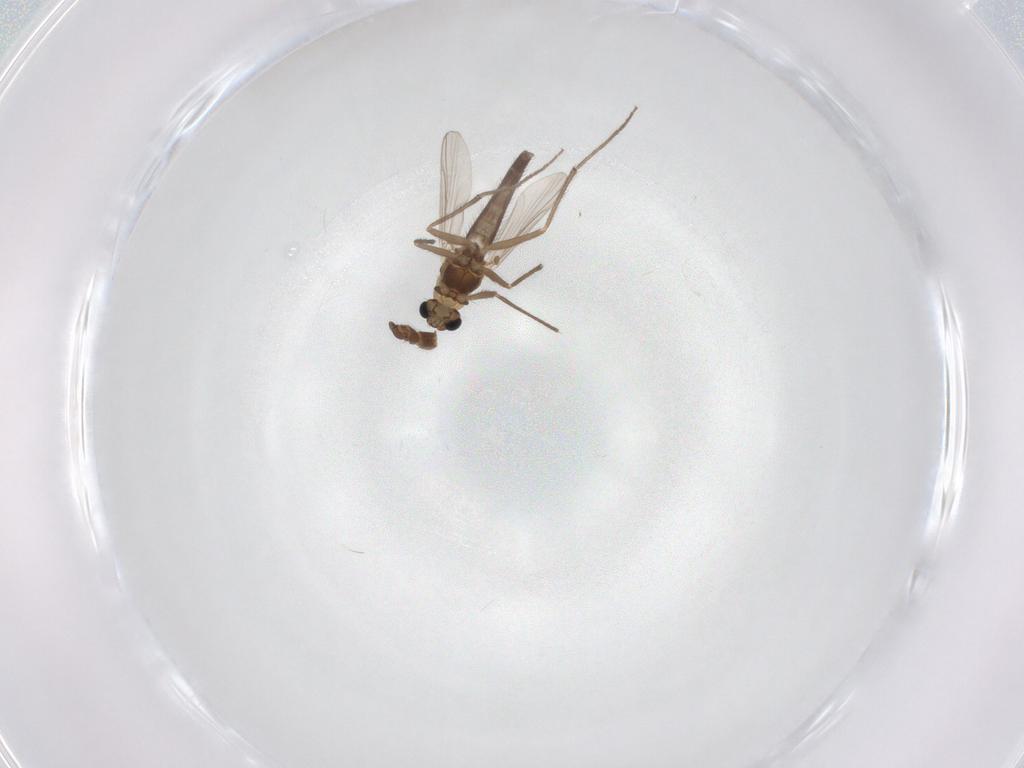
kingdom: Animalia
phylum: Arthropoda
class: Insecta
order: Diptera
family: Chironomidae
